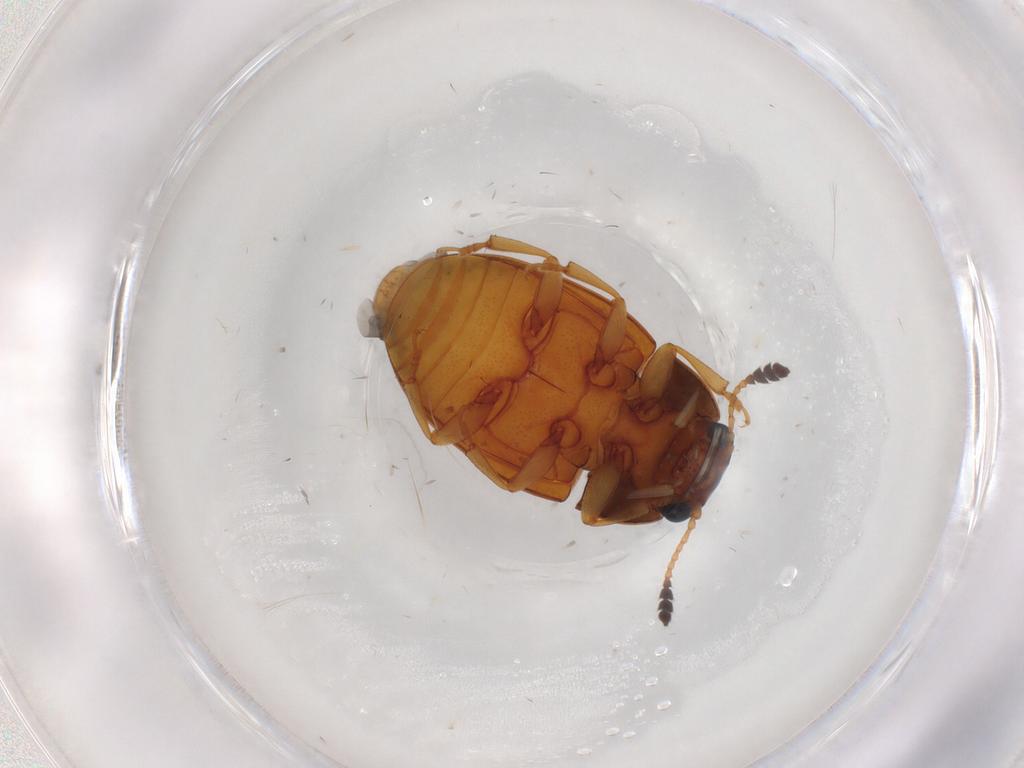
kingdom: Animalia
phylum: Arthropoda
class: Insecta
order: Coleoptera
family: Erotylidae
